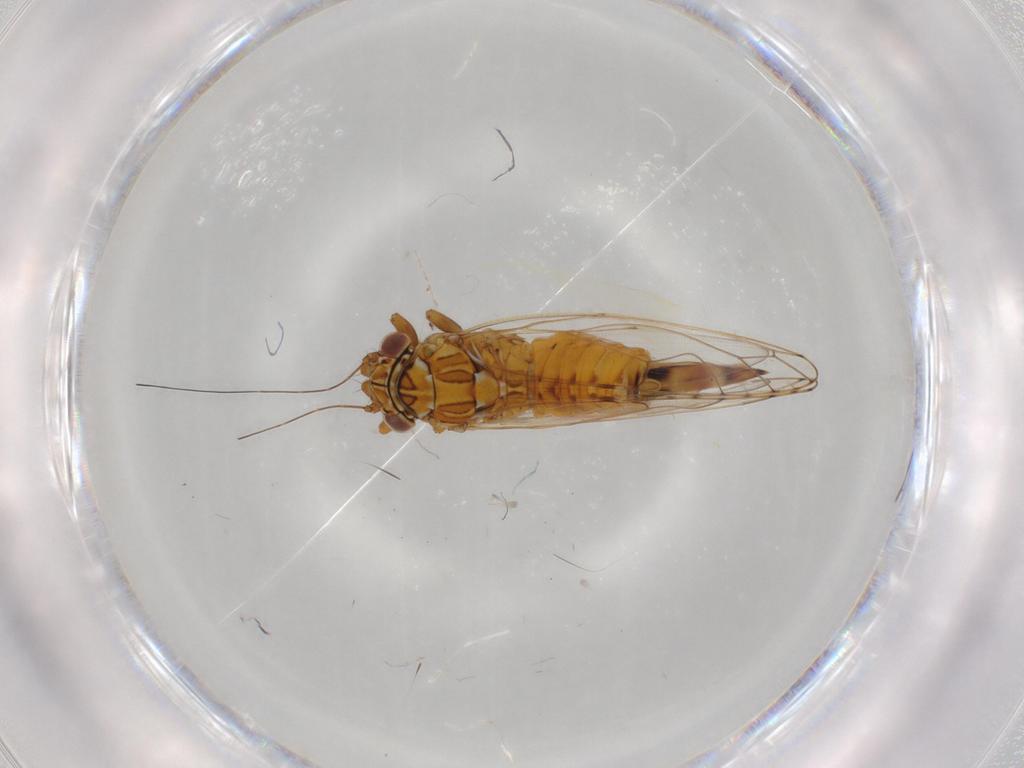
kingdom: Animalia
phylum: Arthropoda
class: Insecta
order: Hemiptera
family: Psylloidea_incertae_sedis
